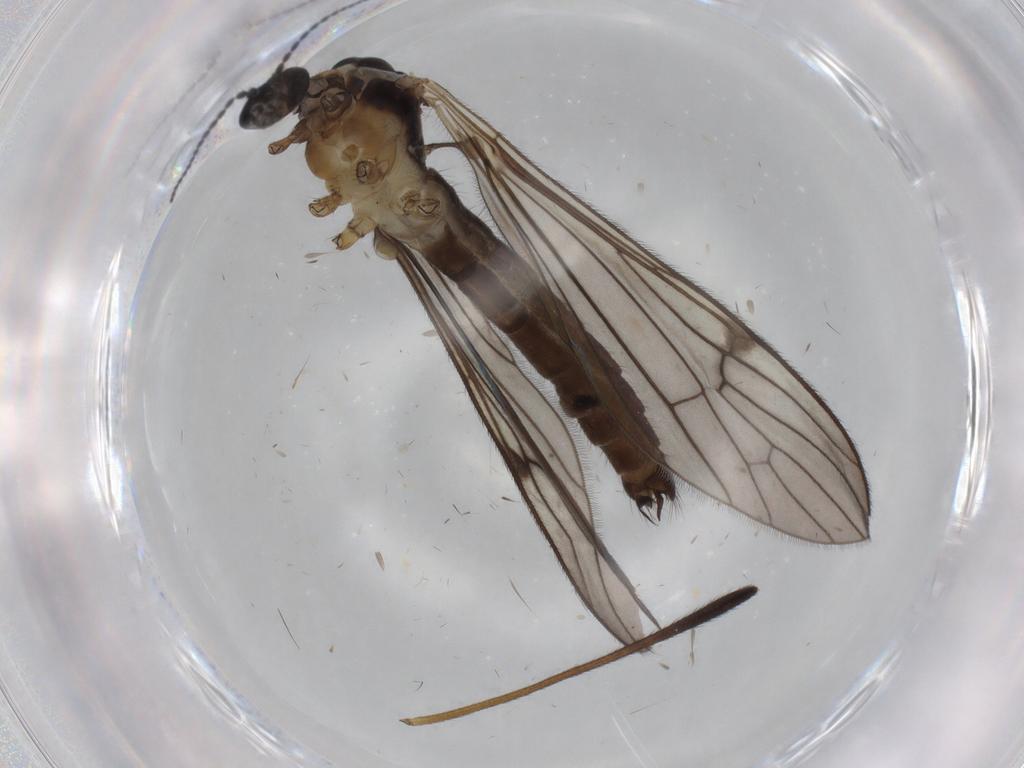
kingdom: Animalia
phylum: Arthropoda
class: Insecta
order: Diptera
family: Limoniidae
